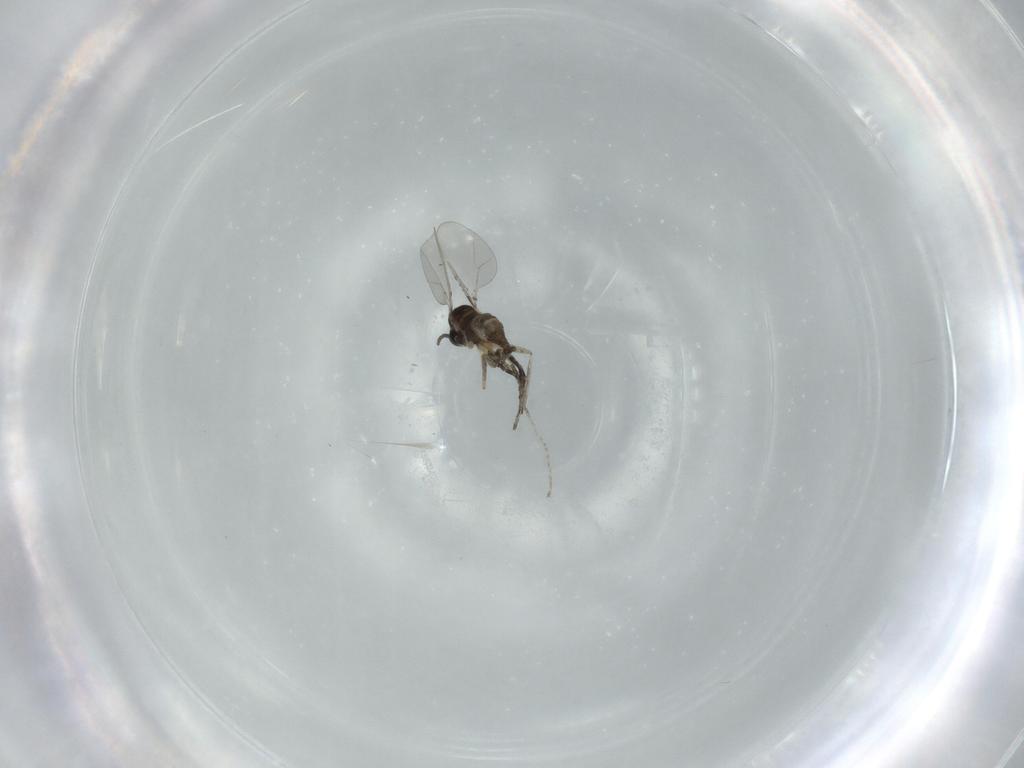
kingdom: Animalia
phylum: Arthropoda
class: Insecta
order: Diptera
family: Cecidomyiidae
